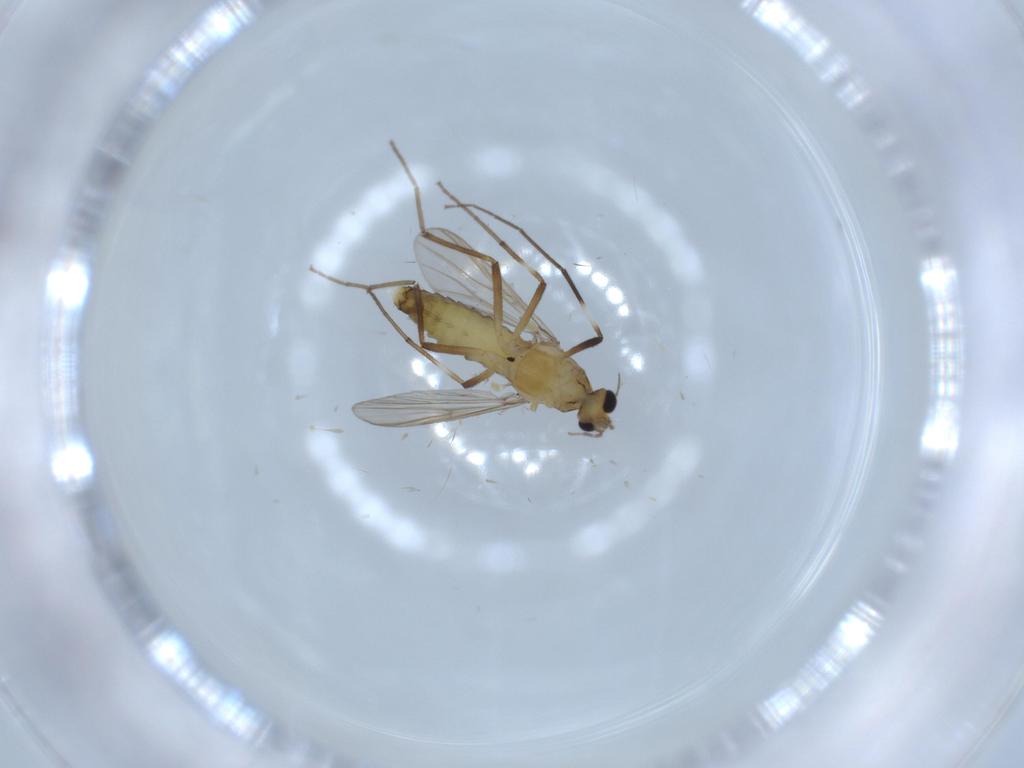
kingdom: Animalia
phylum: Arthropoda
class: Insecta
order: Diptera
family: Chironomidae
